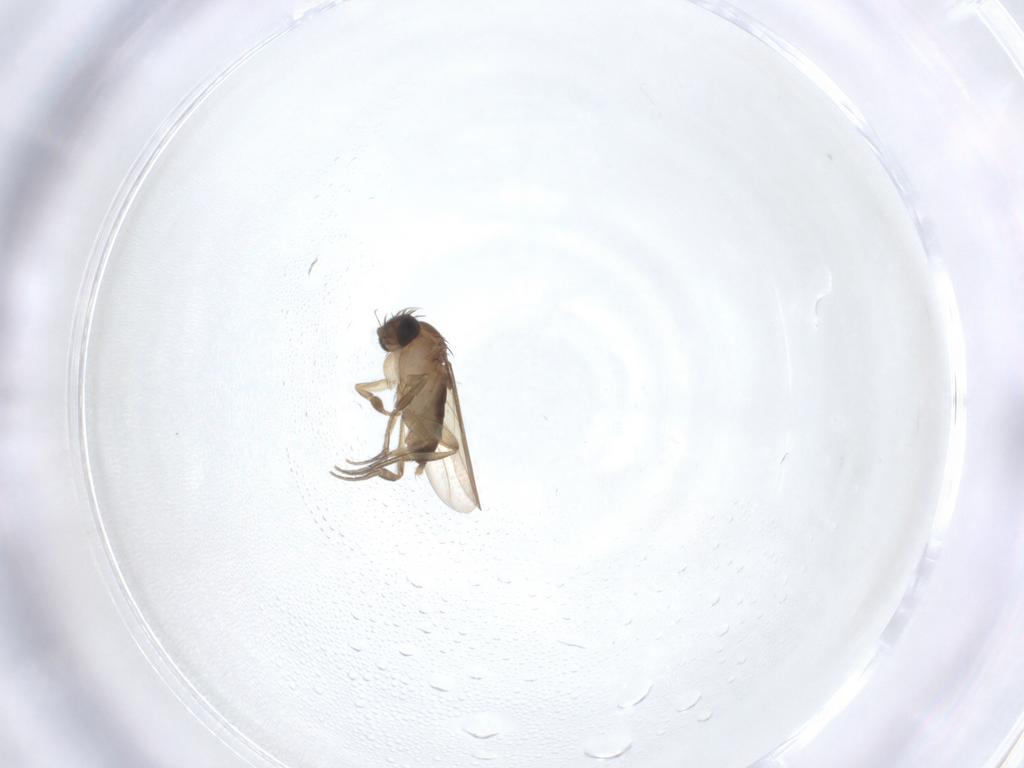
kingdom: Animalia
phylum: Arthropoda
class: Insecta
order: Diptera
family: Phoridae
